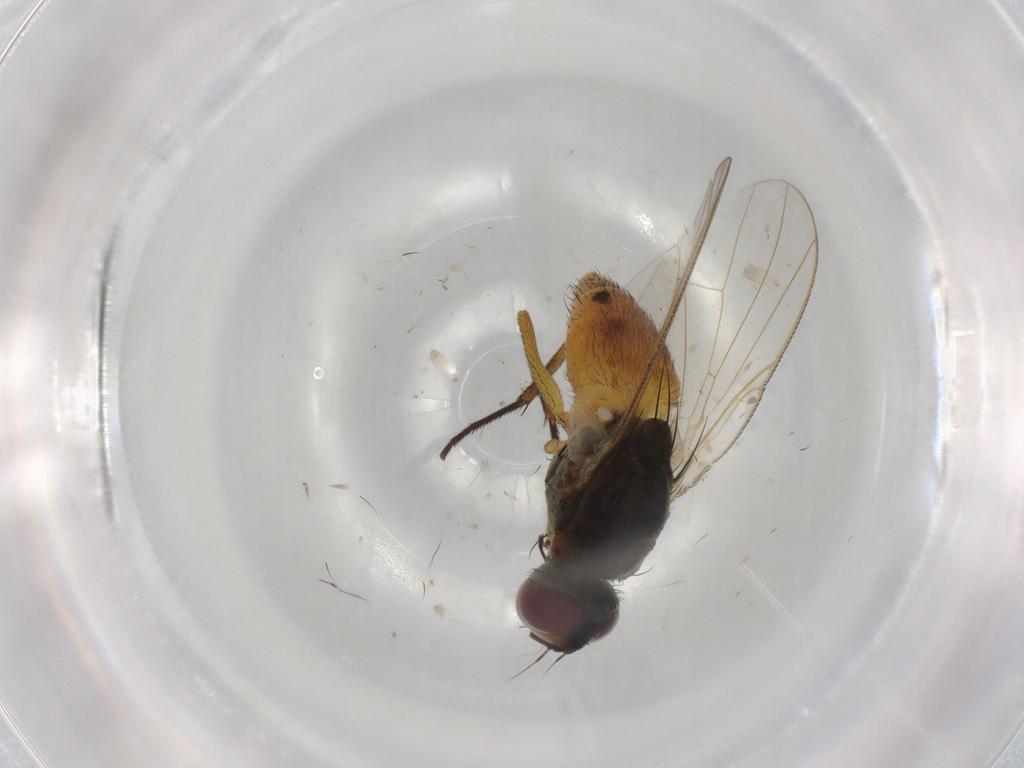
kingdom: Animalia
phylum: Arthropoda
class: Insecta
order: Diptera
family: Muscidae
